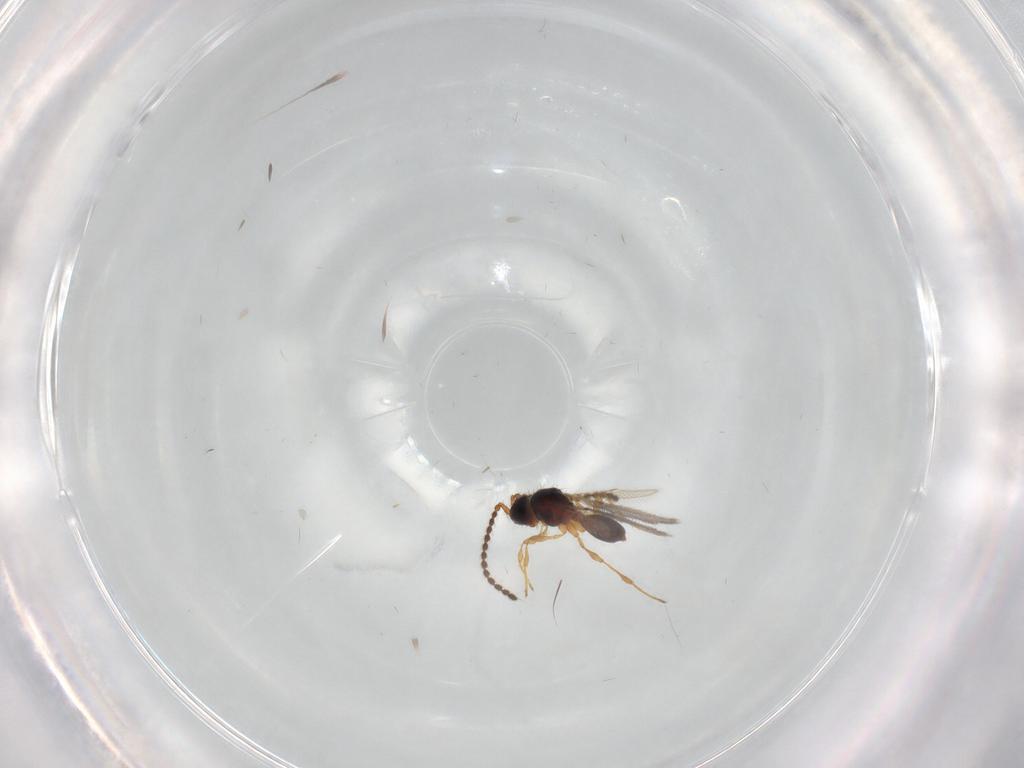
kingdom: Animalia
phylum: Arthropoda
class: Insecta
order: Hymenoptera
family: Diapriidae
